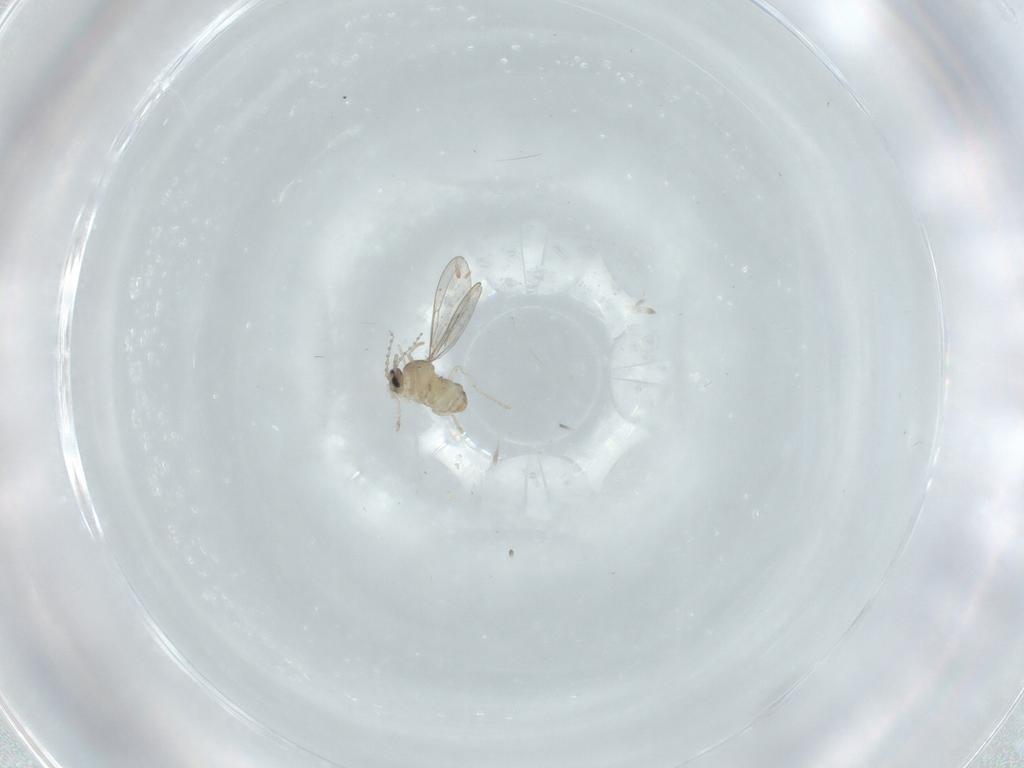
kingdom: Animalia
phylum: Arthropoda
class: Insecta
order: Diptera
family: Cecidomyiidae
